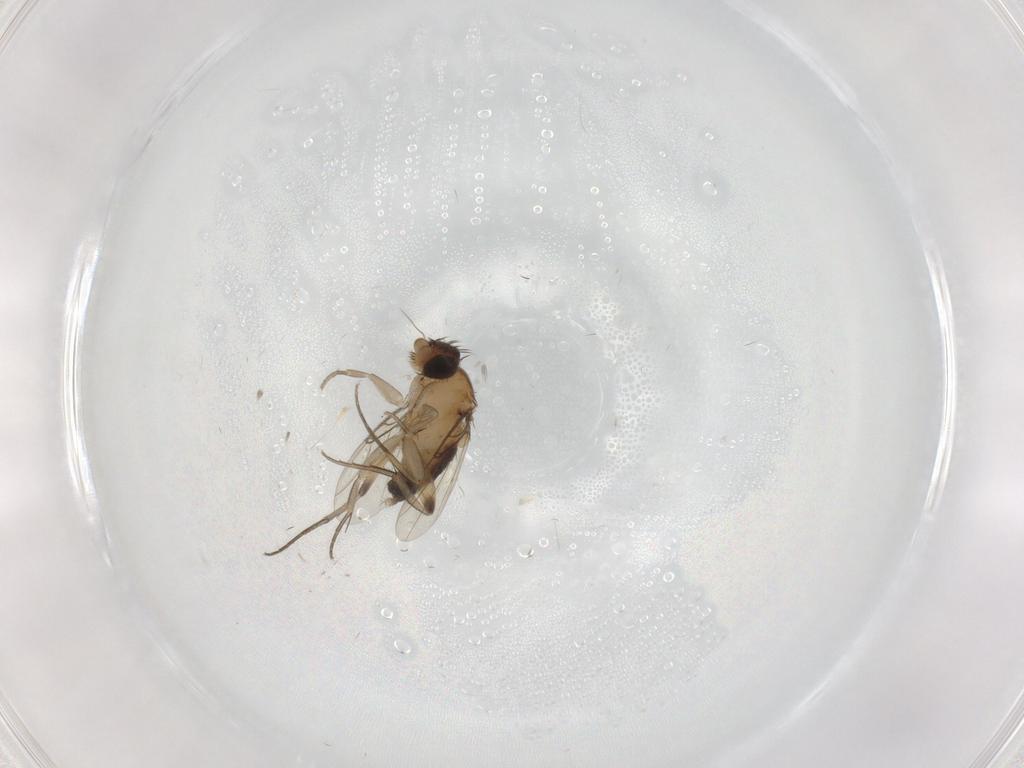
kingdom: Animalia
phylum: Arthropoda
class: Insecta
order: Diptera
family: Phoridae
